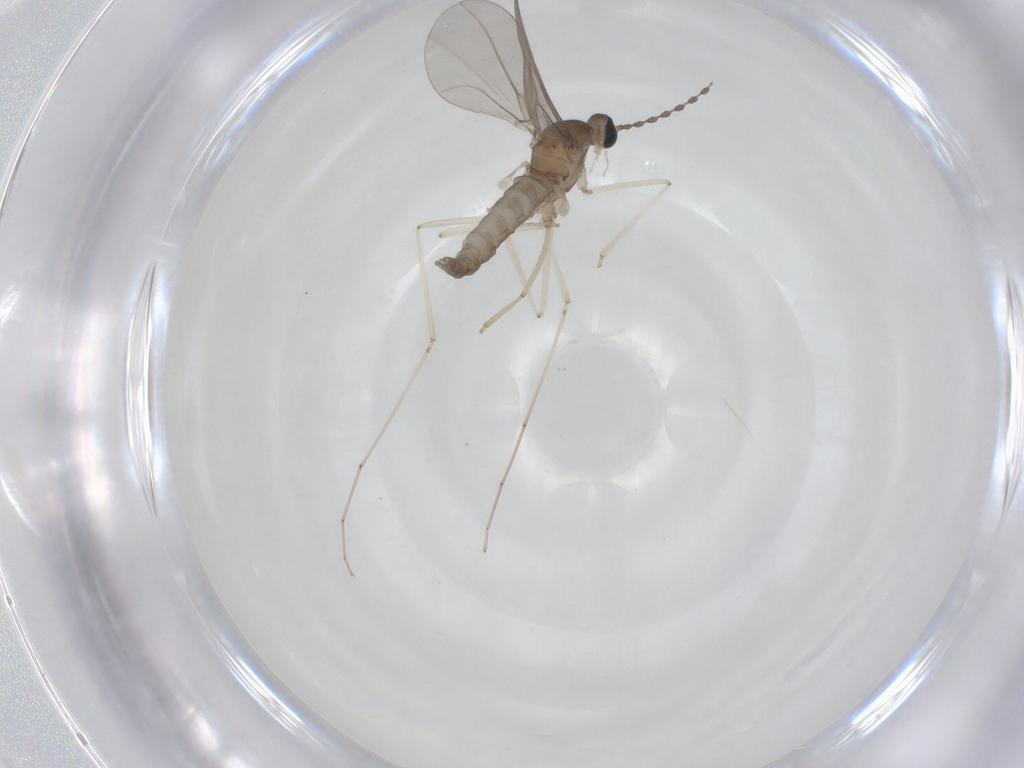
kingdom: Animalia
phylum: Arthropoda
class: Insecta
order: Diptera
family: Cecidomyiidae
